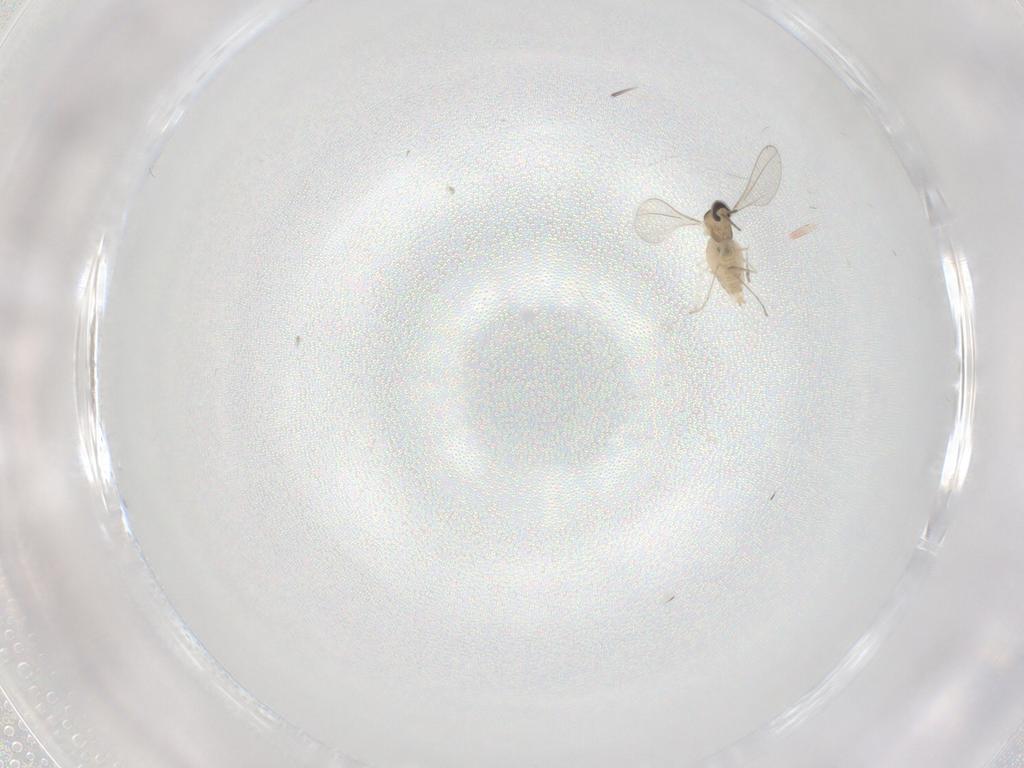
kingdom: Animalia
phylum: Arthropoda
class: Insecta
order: Diptera
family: Cecidomyiidae
